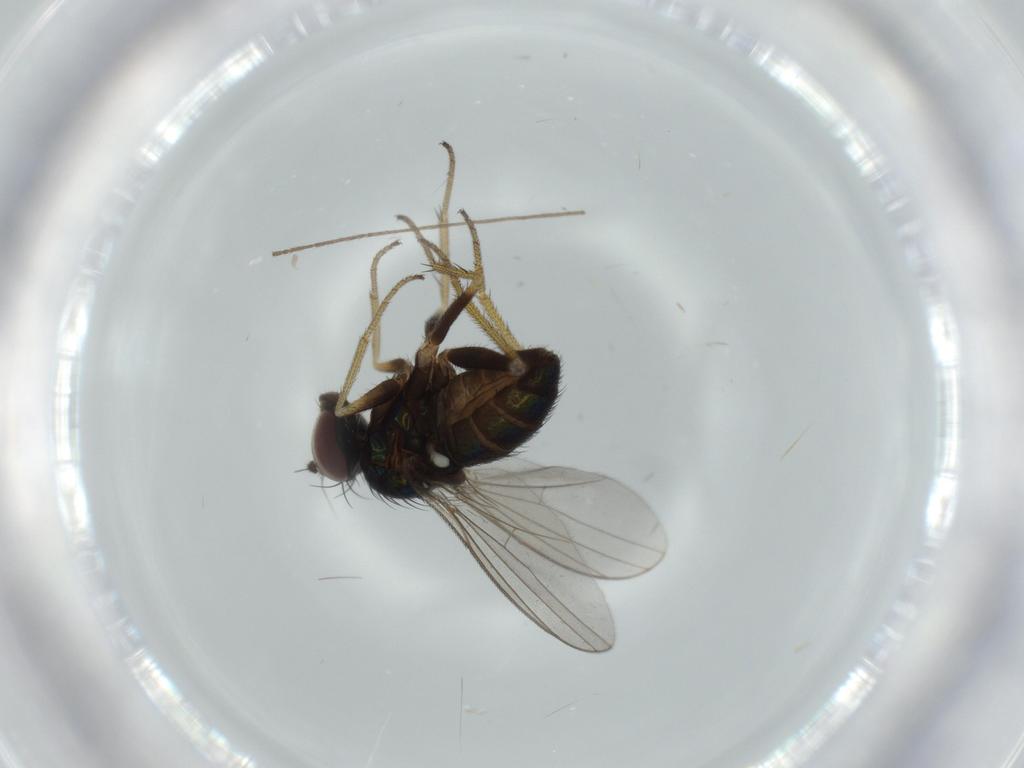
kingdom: Animalia
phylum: Arthropoda
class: Insecta
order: Diptera
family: Limoniidae
